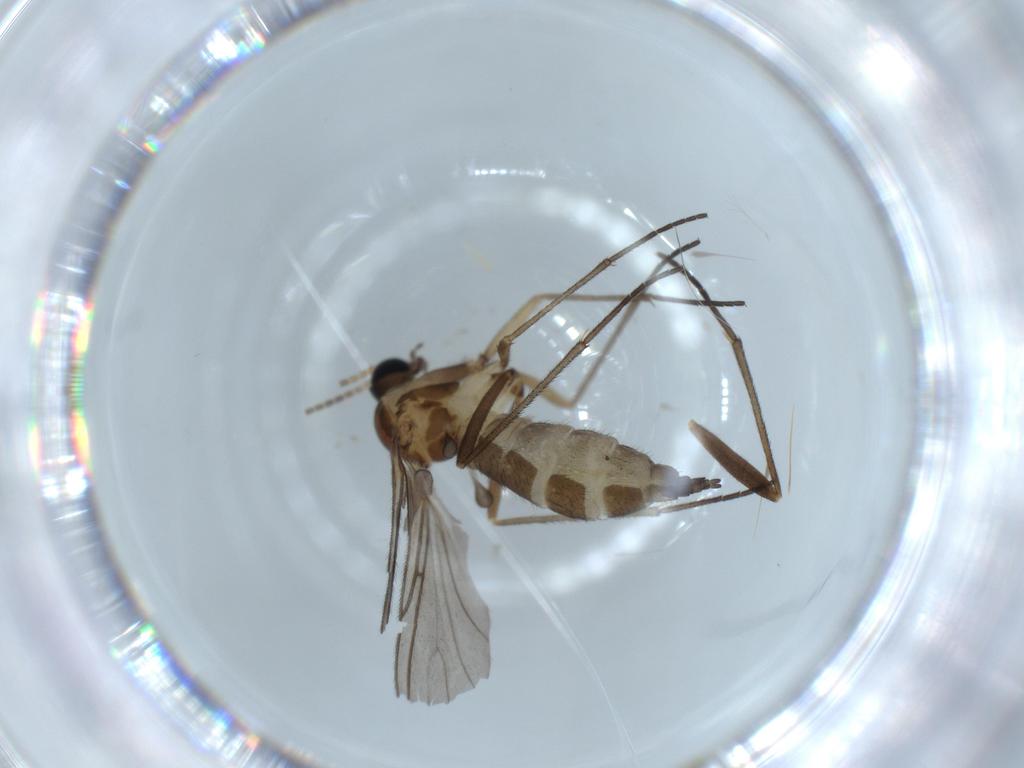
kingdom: Animalia
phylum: Arthropoda
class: Insecta
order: Diptera
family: Sciaridae
